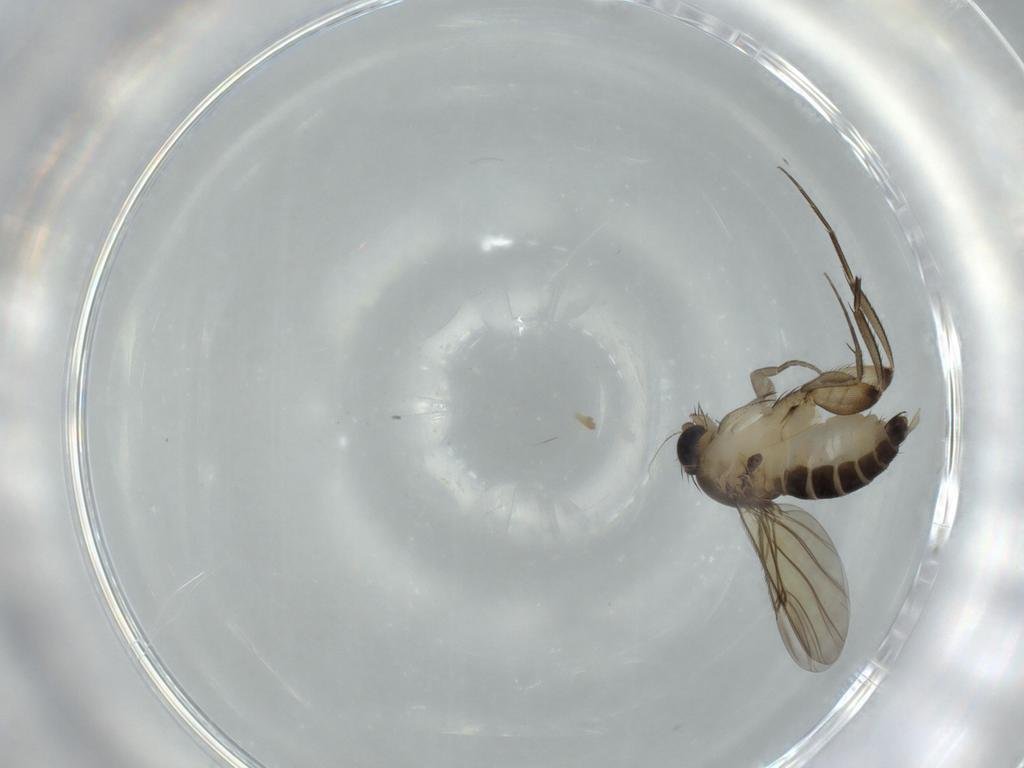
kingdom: Animalia
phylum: Arthropoda
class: Insecta
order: Diptera
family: Phoridae
